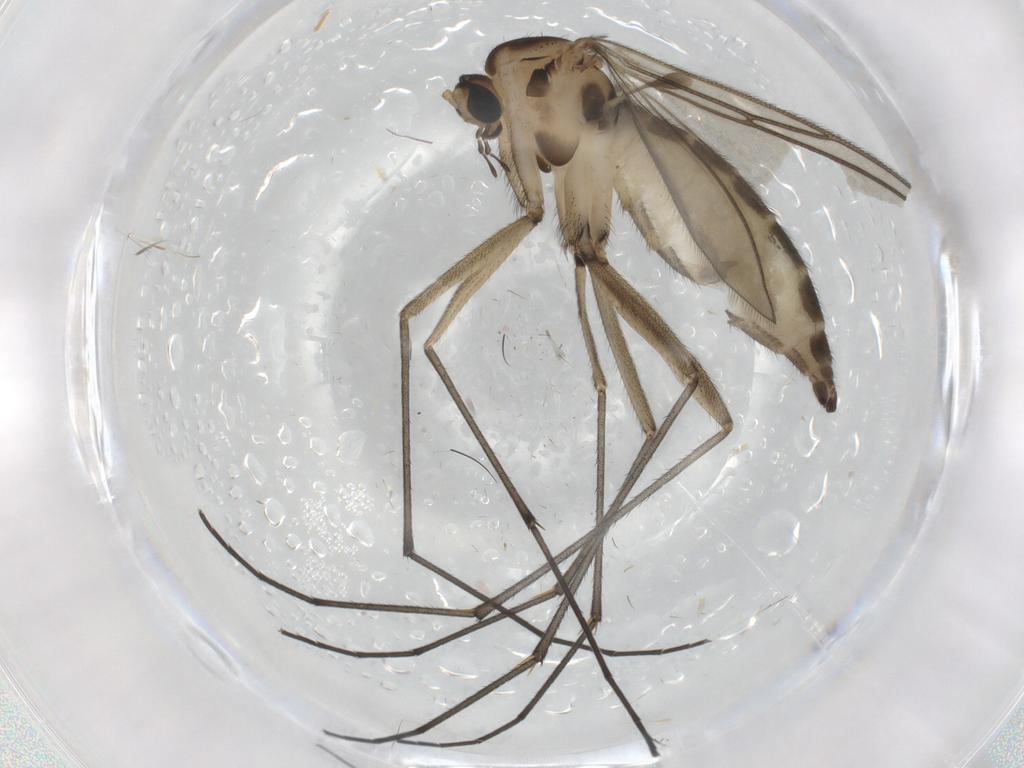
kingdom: Animalia
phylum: Arthropoda
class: Insecta
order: Diptera
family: Sciaridae
